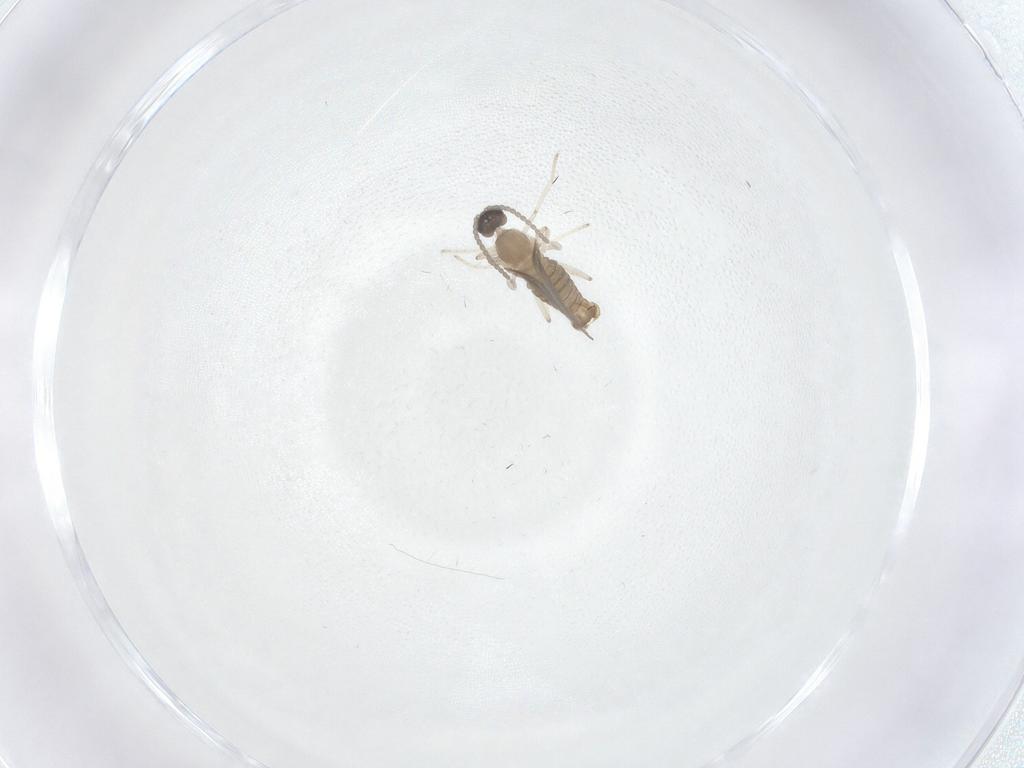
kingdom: Animalia
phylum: Arthropoda
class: Insecta
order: Diptera
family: Cecidomyiidae
